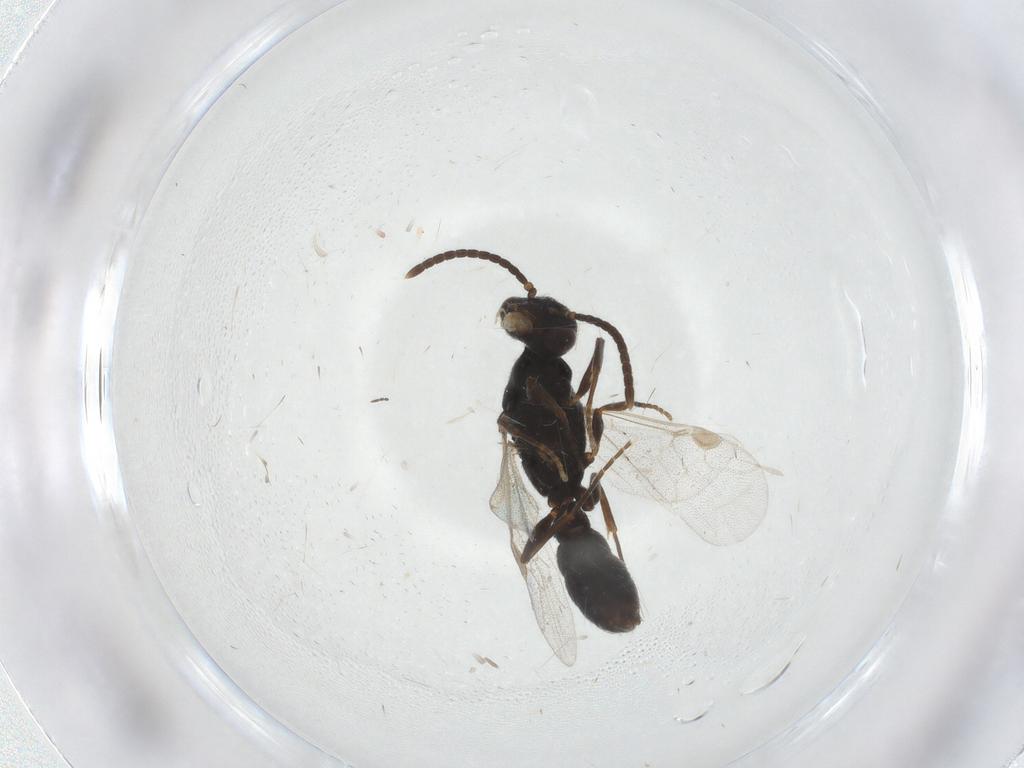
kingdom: Animalia
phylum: Arthropoda
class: Insecta
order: Hymenoptera
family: Formicidae
